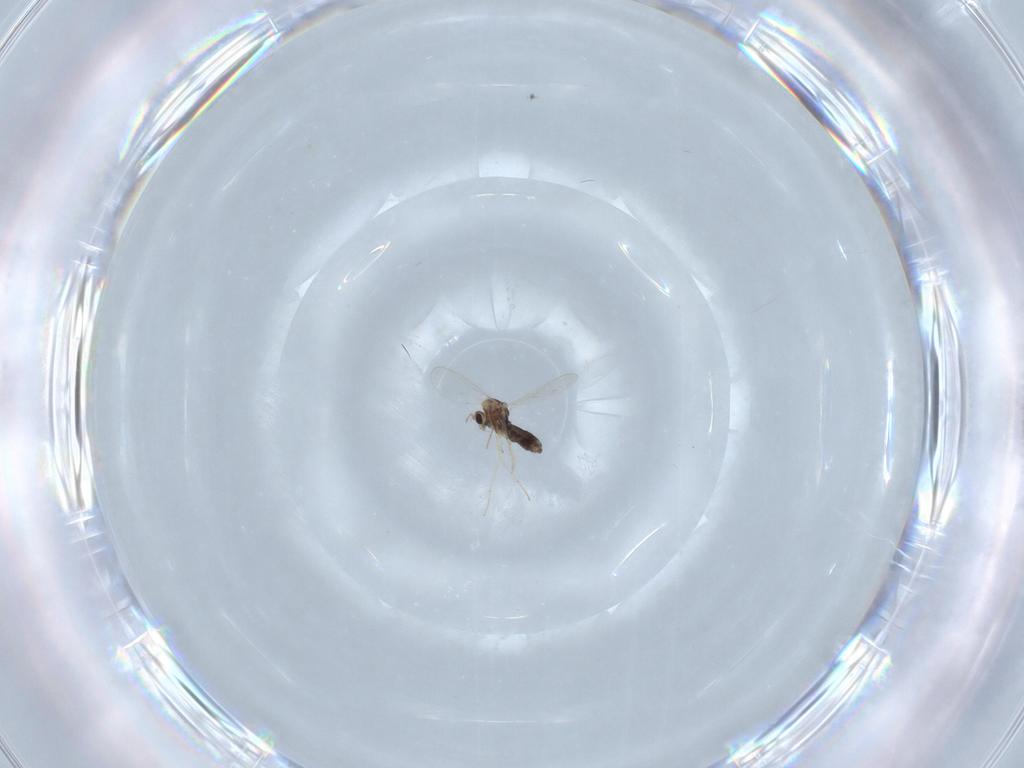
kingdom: Animalia
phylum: Arthropoda
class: Insecta
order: Diptera
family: Chironomidae
